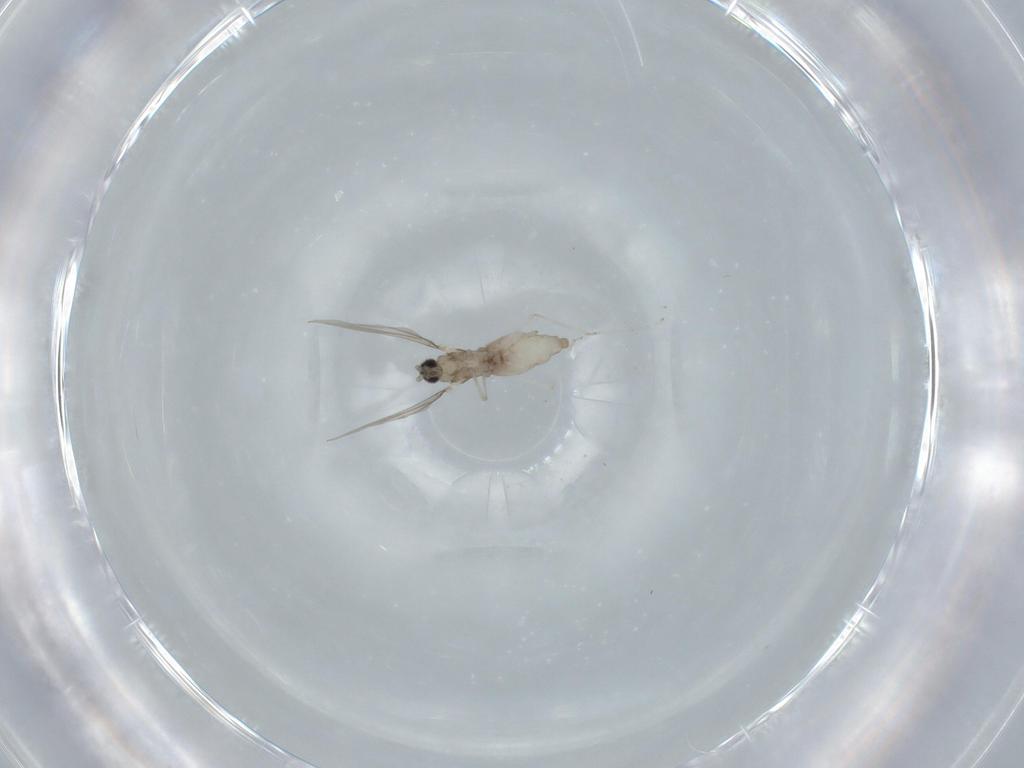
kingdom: Animalia
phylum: Arthropoda
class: Insecta
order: Diptera
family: Cecidomyiidae
